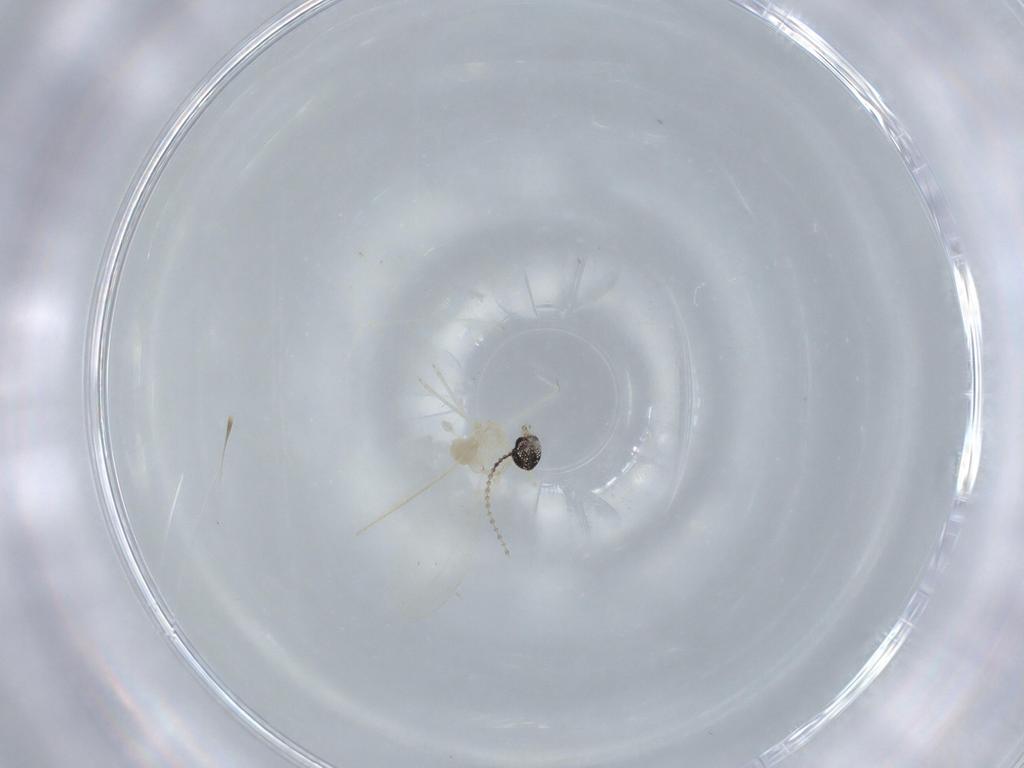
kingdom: Animalia
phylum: Arthropoda
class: Insecta
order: Diptera
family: Cecidomyiidae
